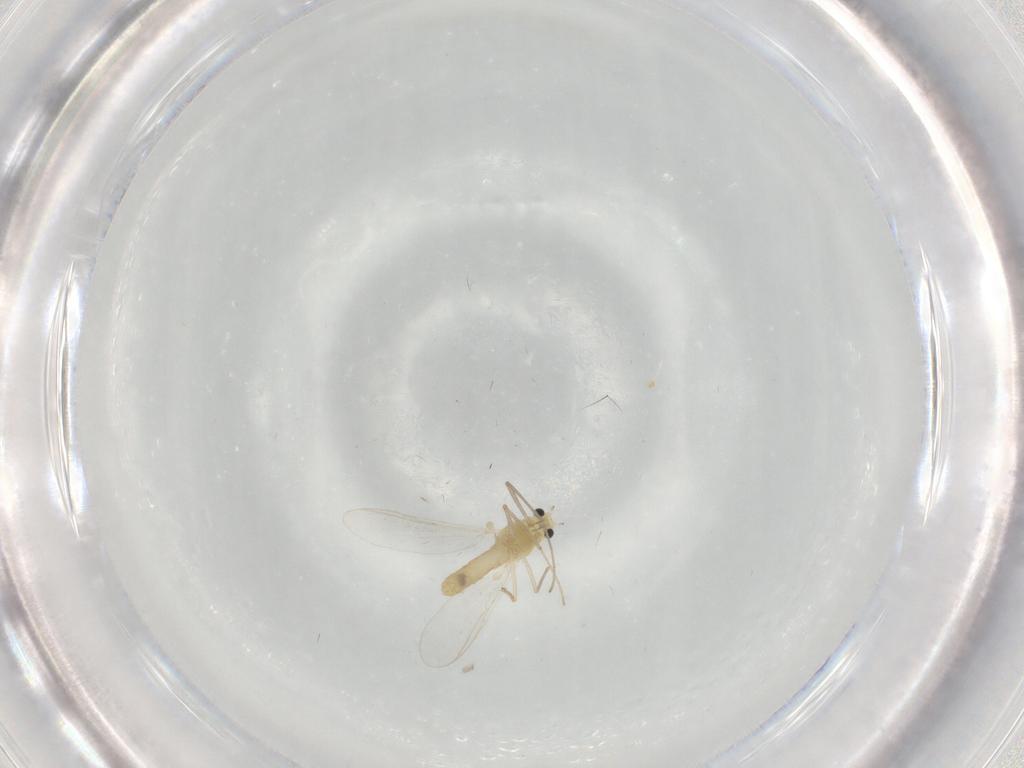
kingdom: Animalia
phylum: Arthropoda
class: Insecta
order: Diptera
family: Chironomidae
